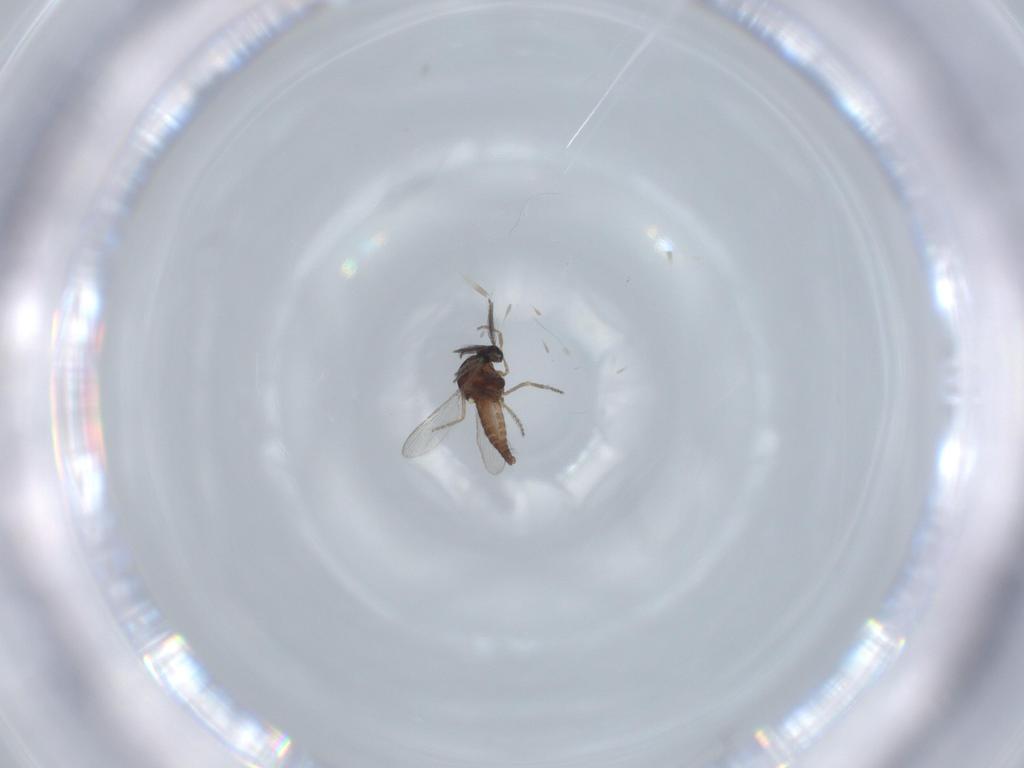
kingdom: Animalia
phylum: Arthropoda
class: Insecta
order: Diptera
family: Ceratopogonidae
